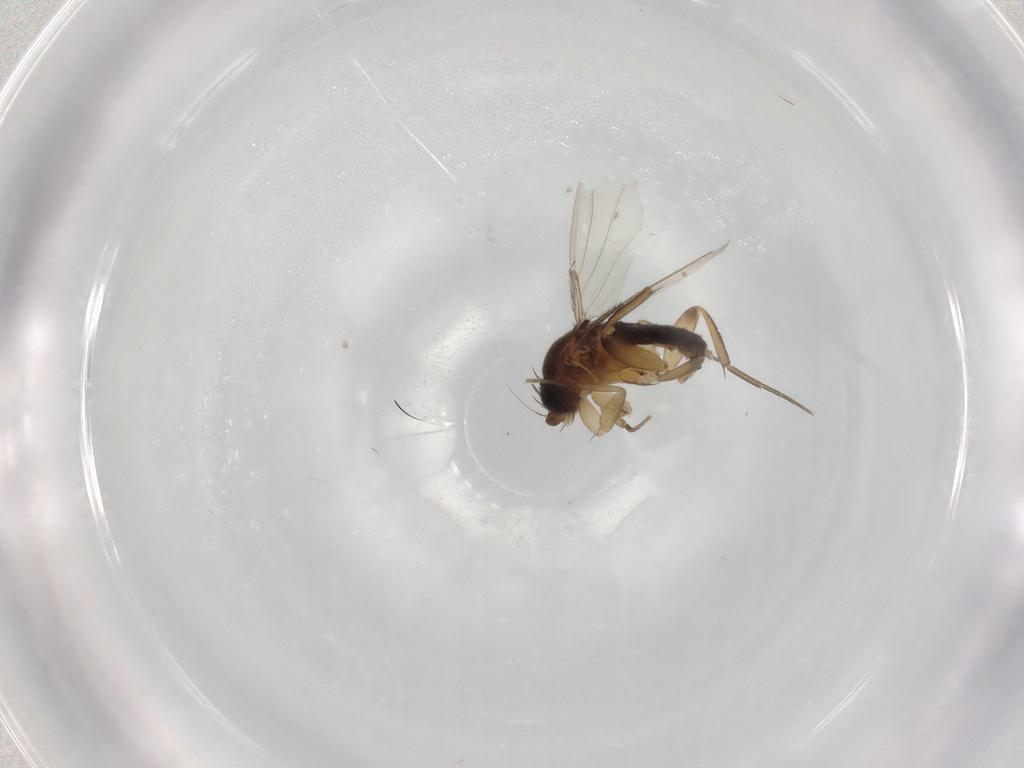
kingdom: Animalia
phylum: Arthropoda
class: Insecta
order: Diptera
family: Phoridae
